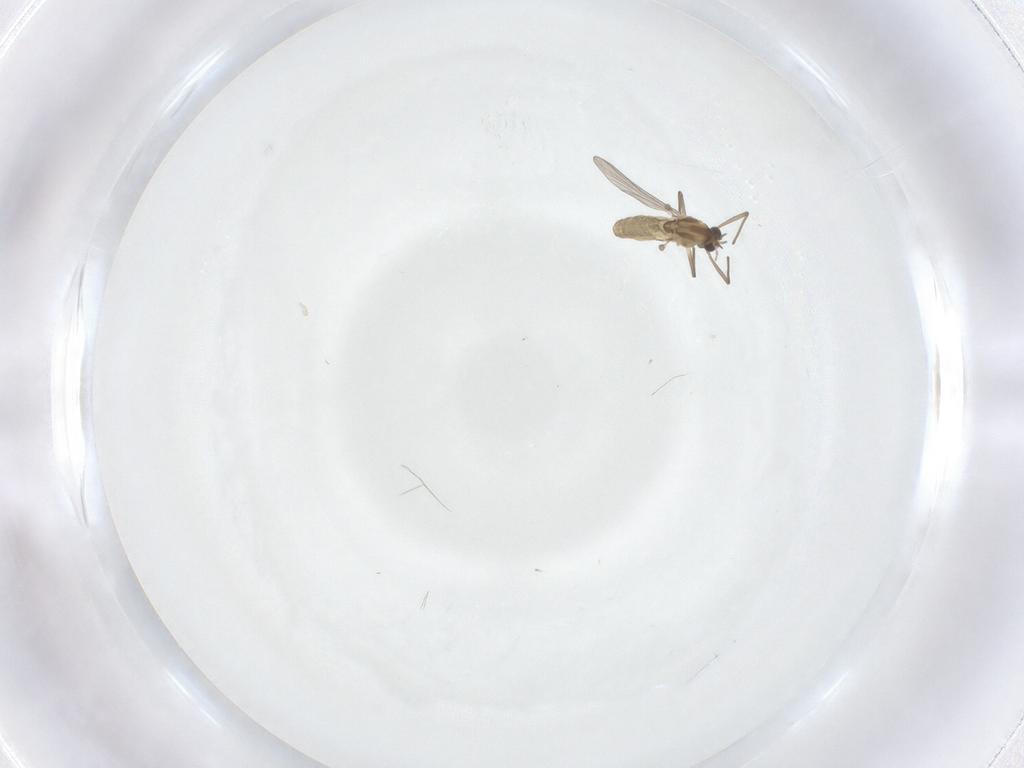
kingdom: Animalia
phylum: Arthropoda
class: Insecta
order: Diptera
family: Chironomidae
